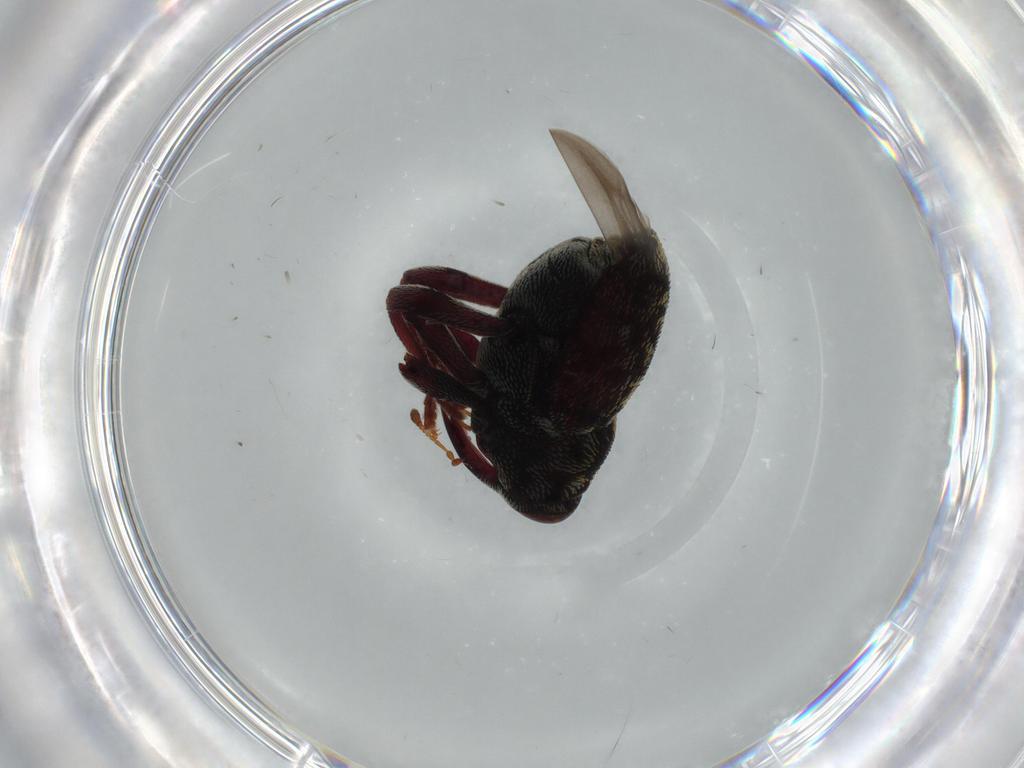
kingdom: Animalia
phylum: Arthropoda
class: Insecta
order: Coleoptera
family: Curculionidae
